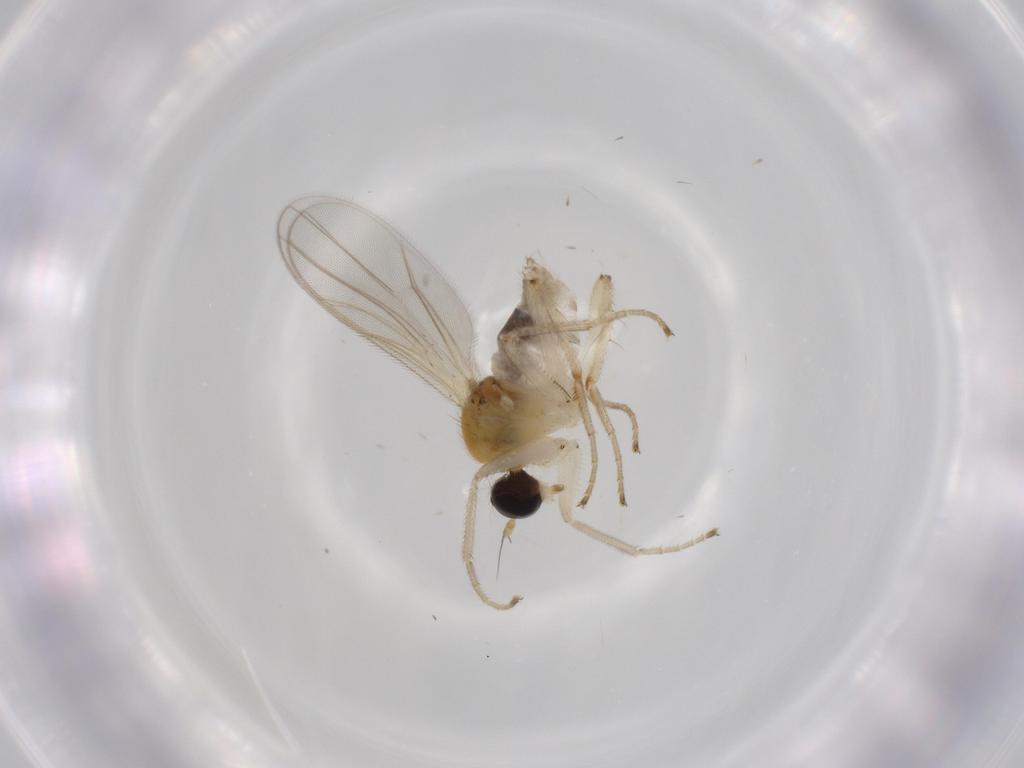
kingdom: Animalia
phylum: Arthropoda
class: Insecta
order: Diptera
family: Hybotidae
